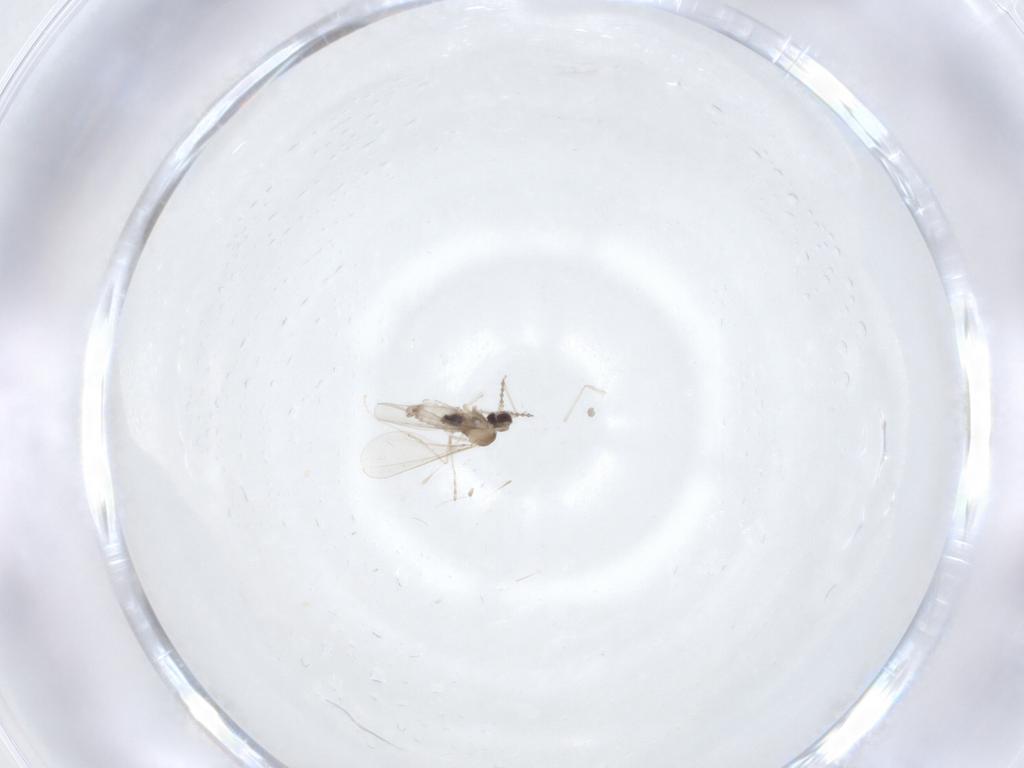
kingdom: Animalia
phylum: Arthropoda
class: Insecta
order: Diptera
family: Cecidomyiidae
